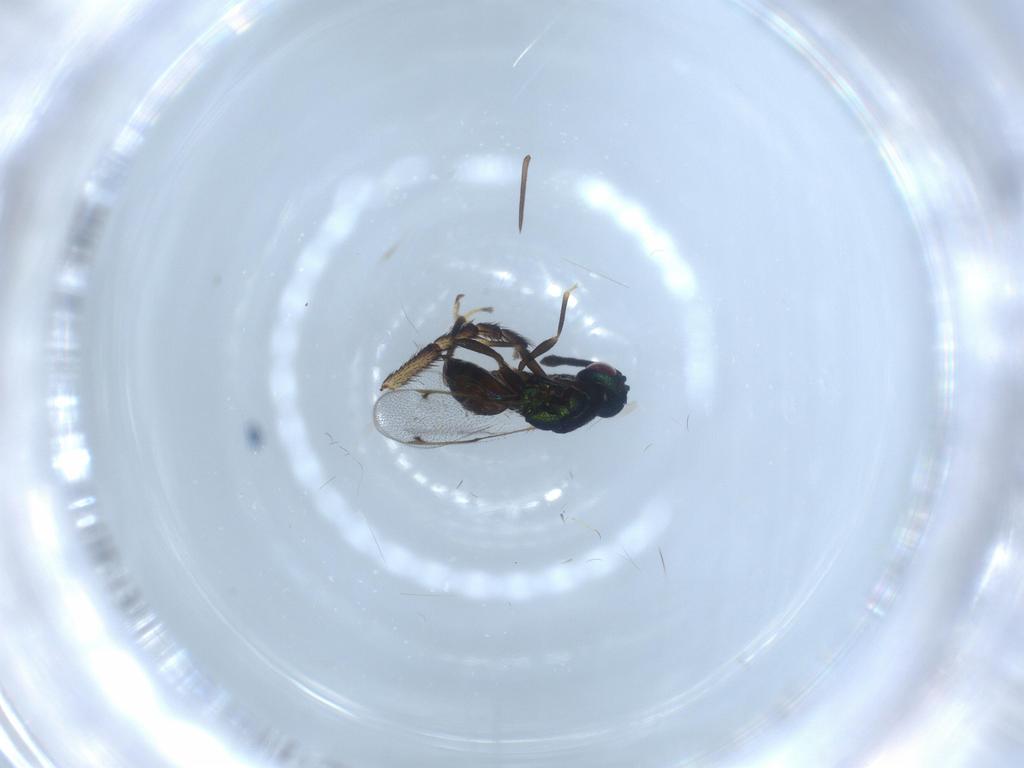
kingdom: Animalia
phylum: Arthropoda
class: Insecta
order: Hymenoptera
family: Torymidae
